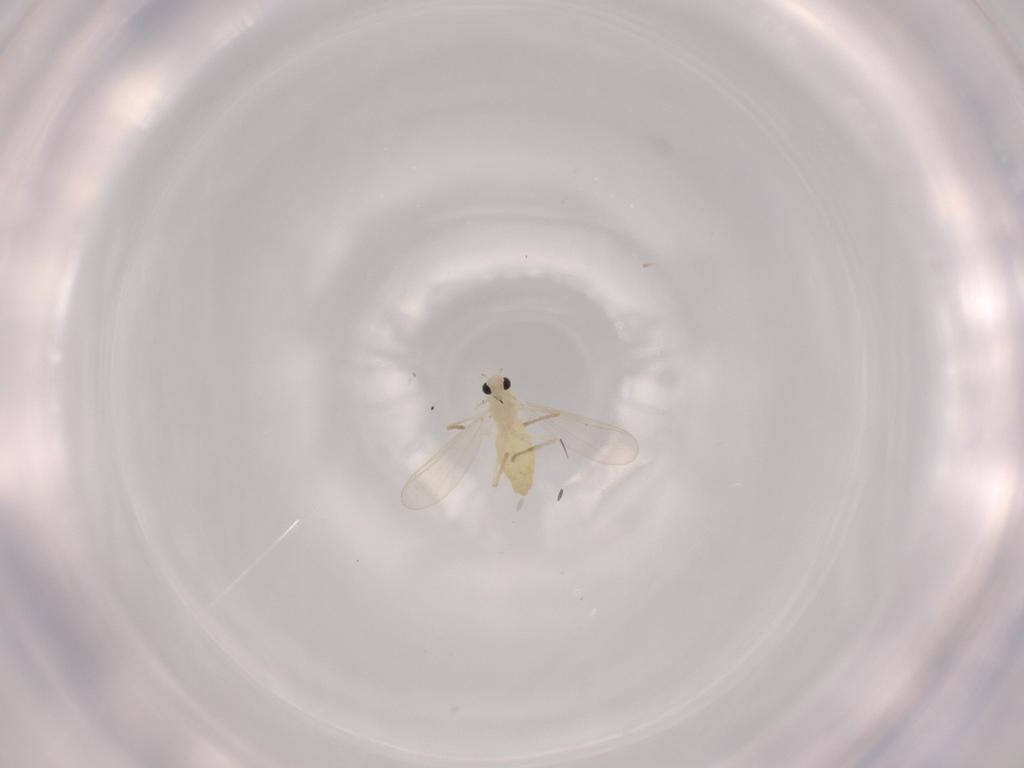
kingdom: Animalia
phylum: Arthropoda
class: Insecta
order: Diptera
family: Chironomidae
